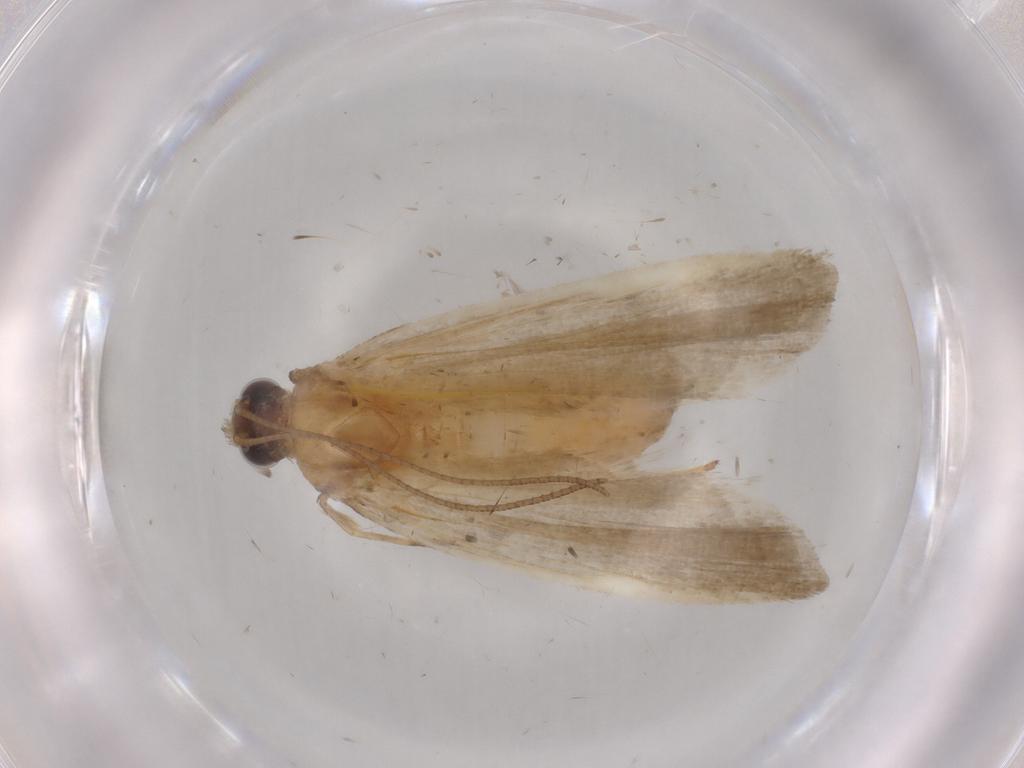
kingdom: Animalia
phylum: Arthropoda
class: Insecta
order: Lepidoptera
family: Noctuidae
